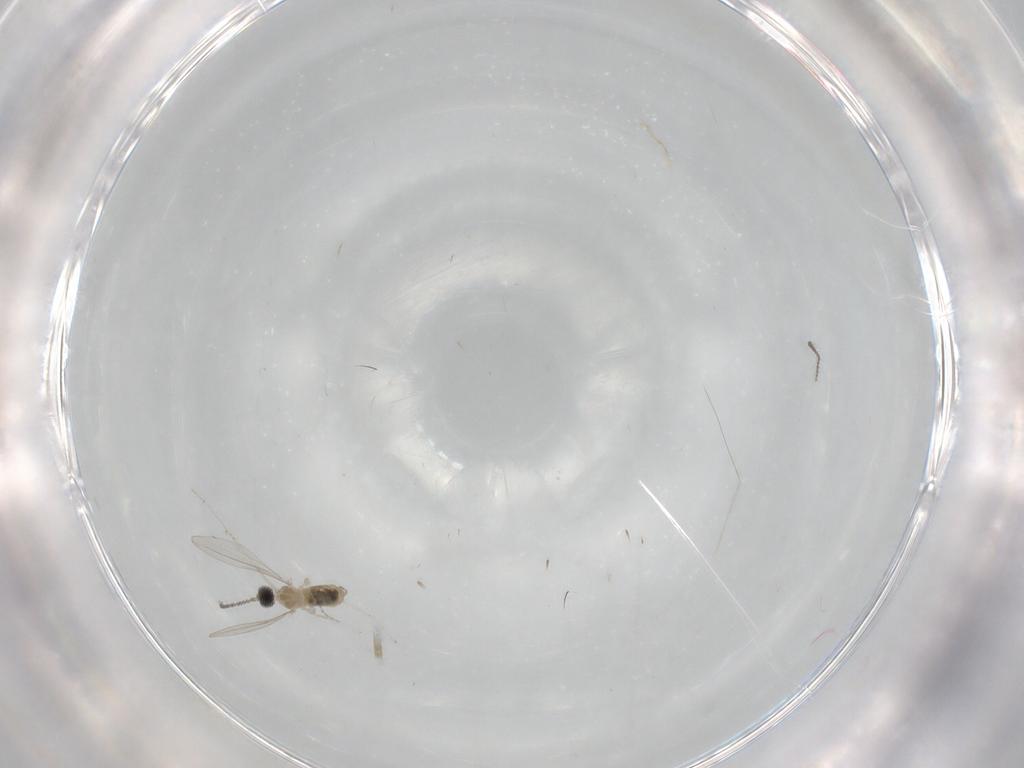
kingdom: Animalia
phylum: Arthropoda
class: Insecta
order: Diptera
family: Cecidomyiidae
